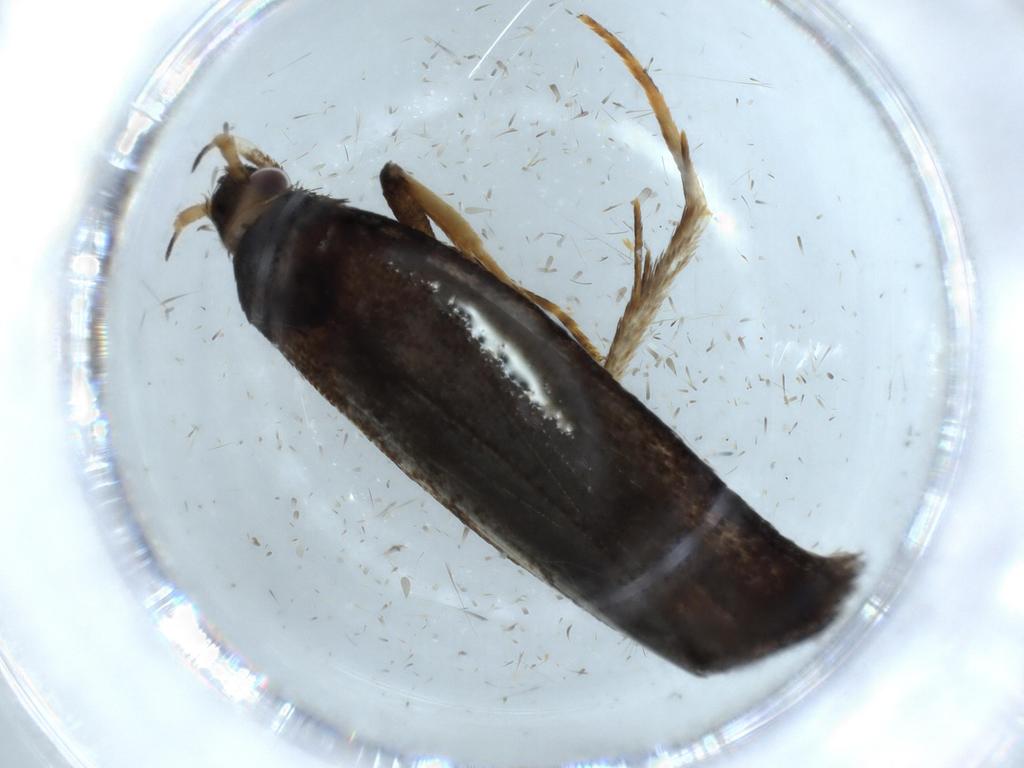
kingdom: Animalia
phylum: Arthropoda
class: Insecta
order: Lepidoptera
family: Lecithoceridae
